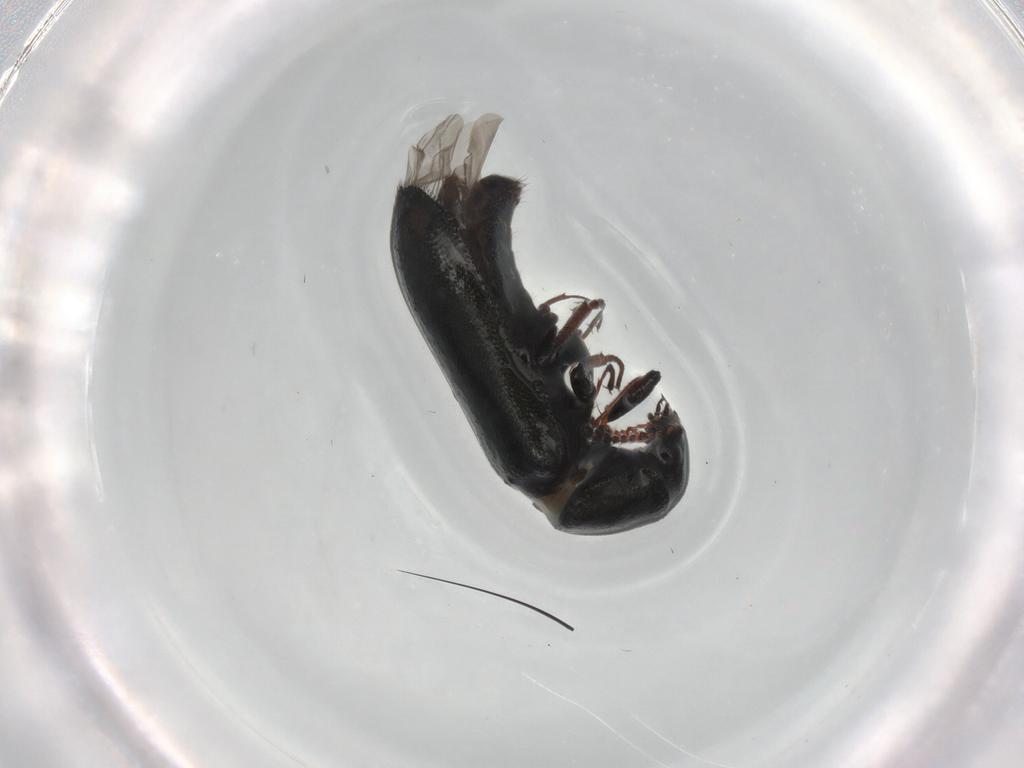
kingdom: Animalia
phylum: Arthropoda
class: Insecta
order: Coleoptera
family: Melyridae
